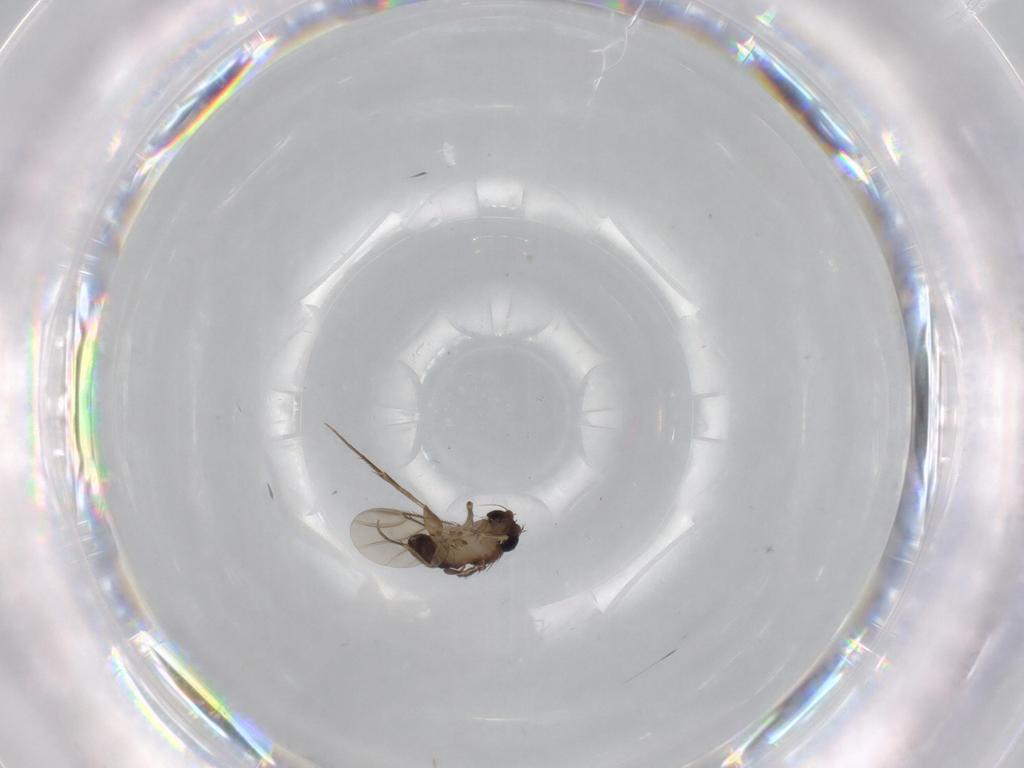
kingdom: Animalia
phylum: Arthropoda
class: Insecta
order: Diptera
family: Phoridae
